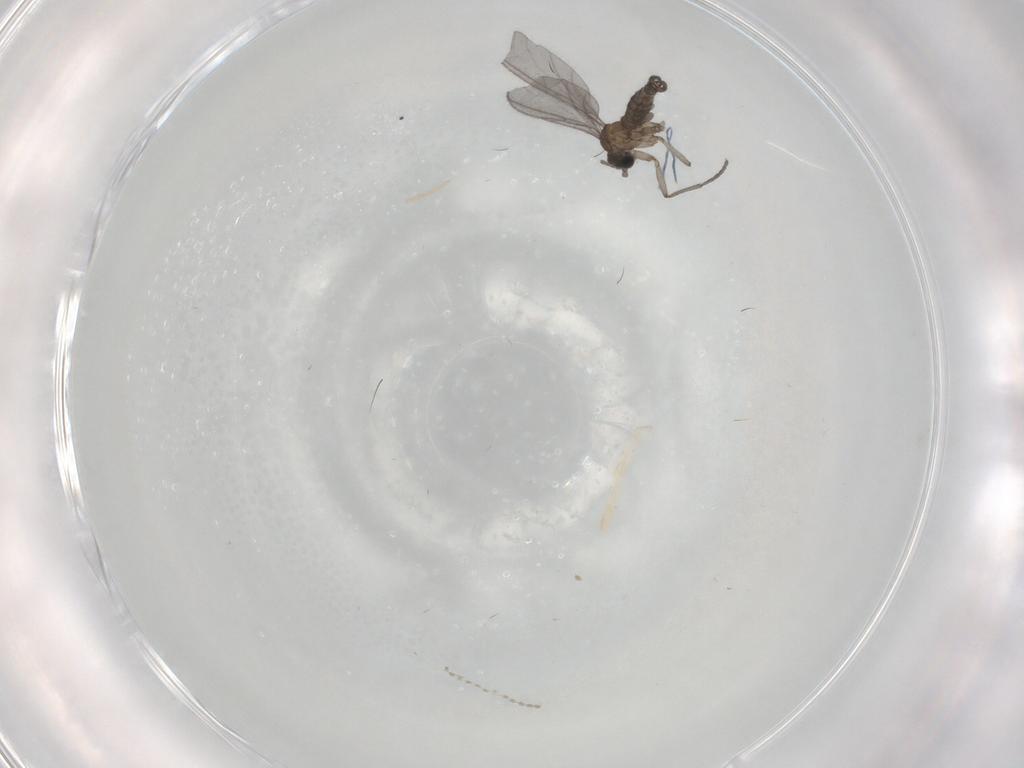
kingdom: Animalia
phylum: Arthropoda
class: Insecta
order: Diptera
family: Sciaridae
